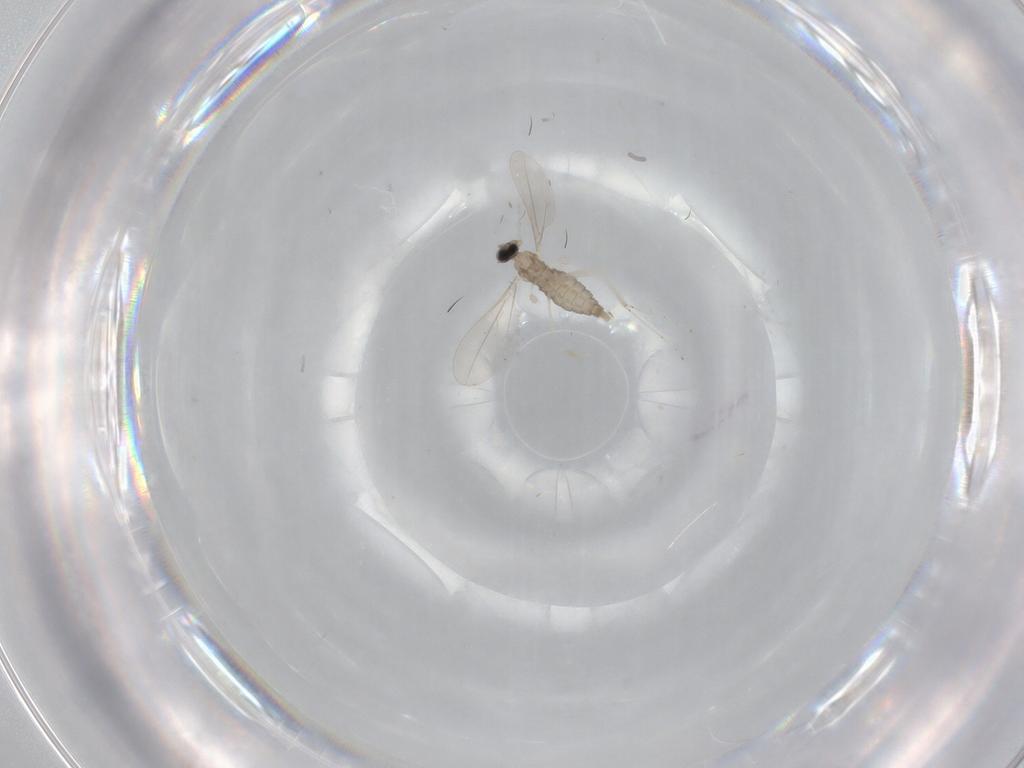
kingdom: Animalia
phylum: Arthropoda
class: Insecta
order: Diptera
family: Cecidomyiidae
